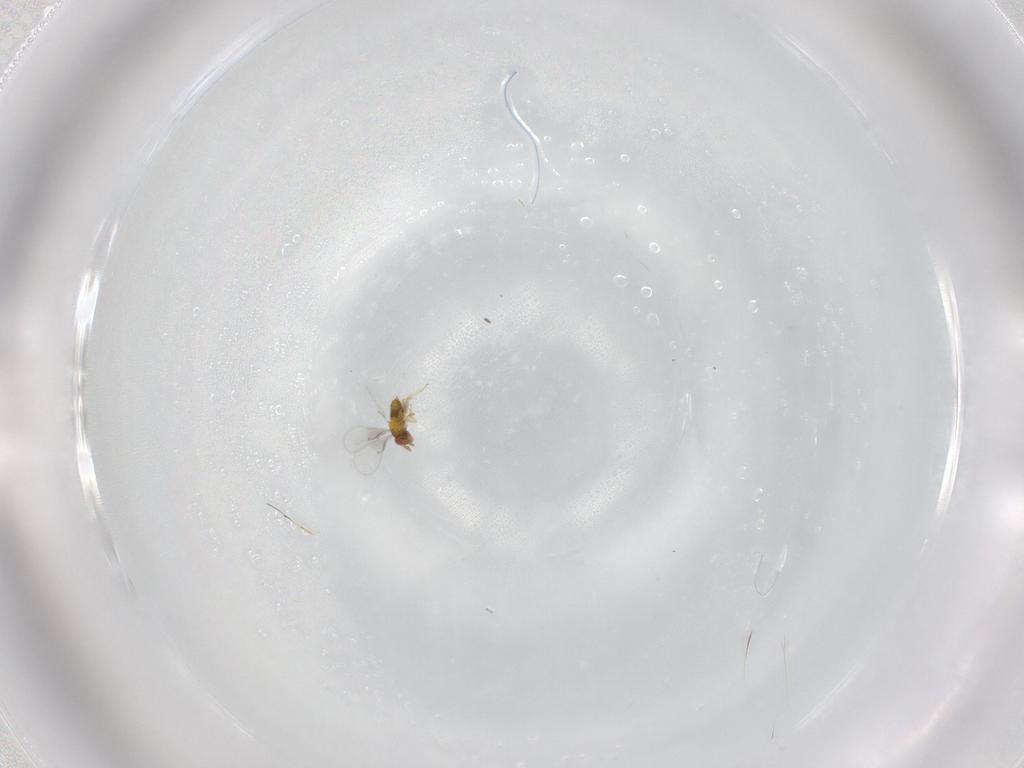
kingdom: Animalia
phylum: Arthropoda
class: Insecta
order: Hymenoptera
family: Trichogrammatidae
